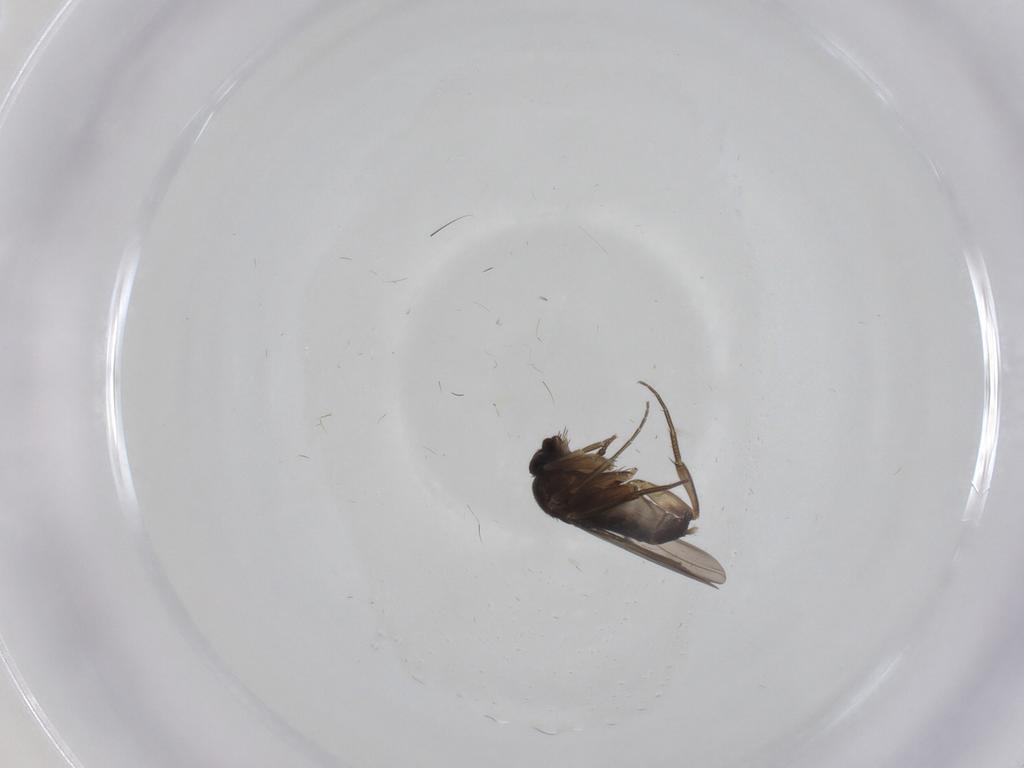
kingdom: Animalia
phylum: Arthropoda
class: Insecta
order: Diptera
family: Phoridae
